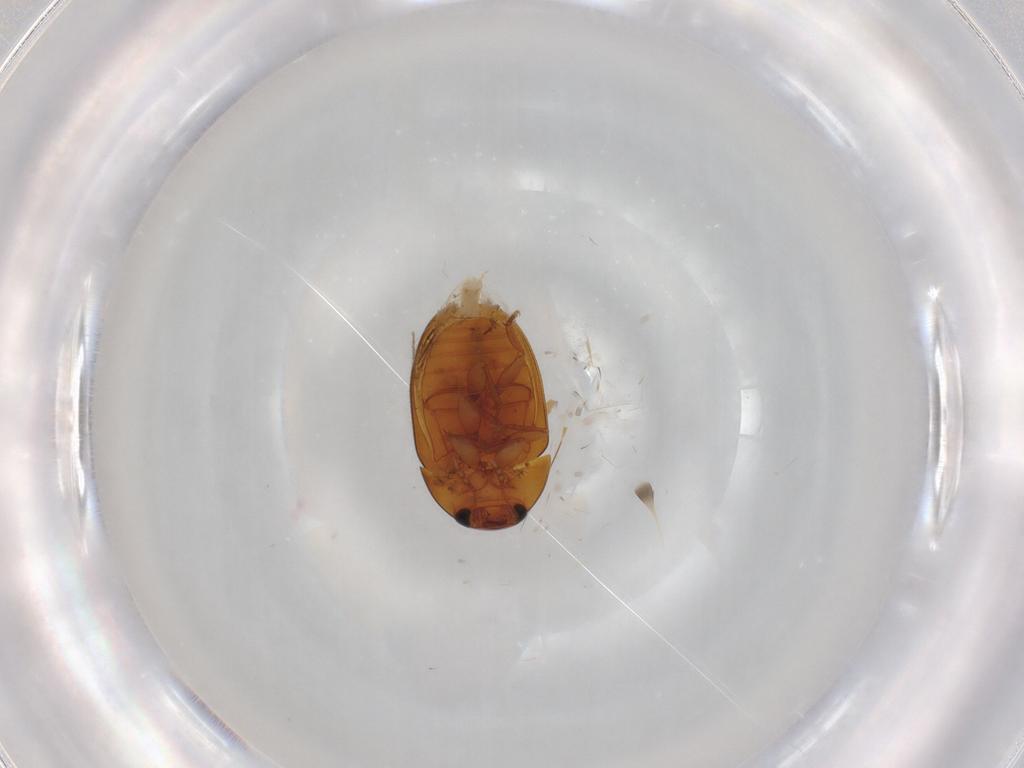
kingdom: Animalia
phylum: Arthropoda
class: Insecta
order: Coleoptera
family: Phalacridae
